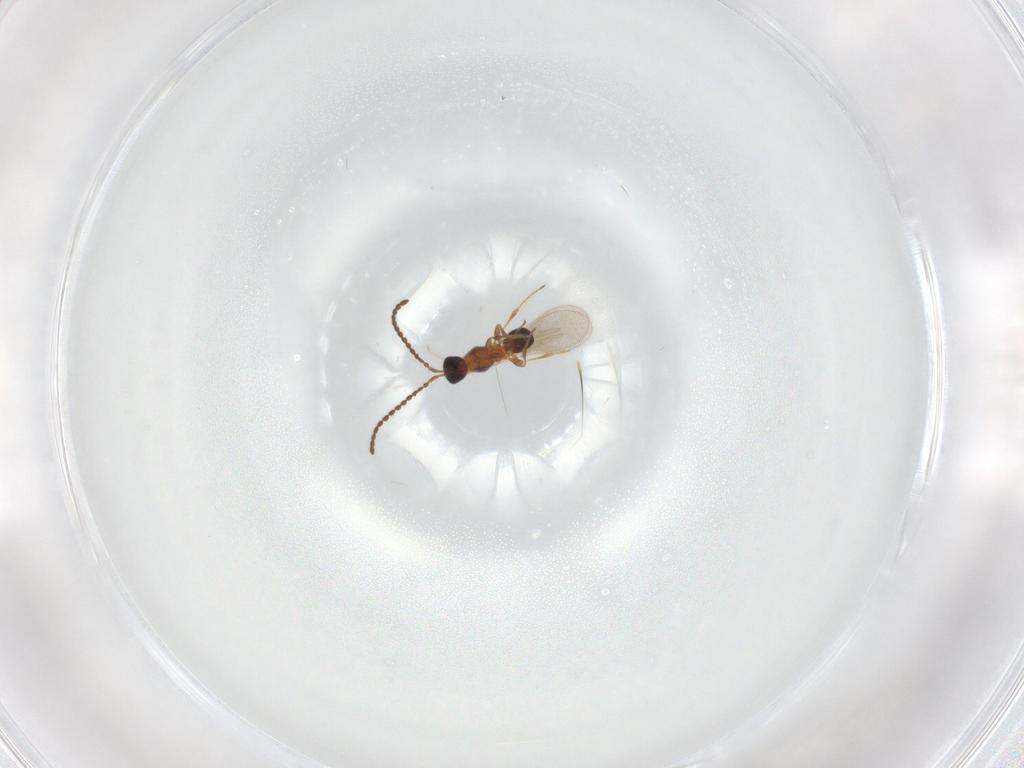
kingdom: Animalia
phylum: Arthropoda
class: Insecta
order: Hymenoptera
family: Diapriidae
